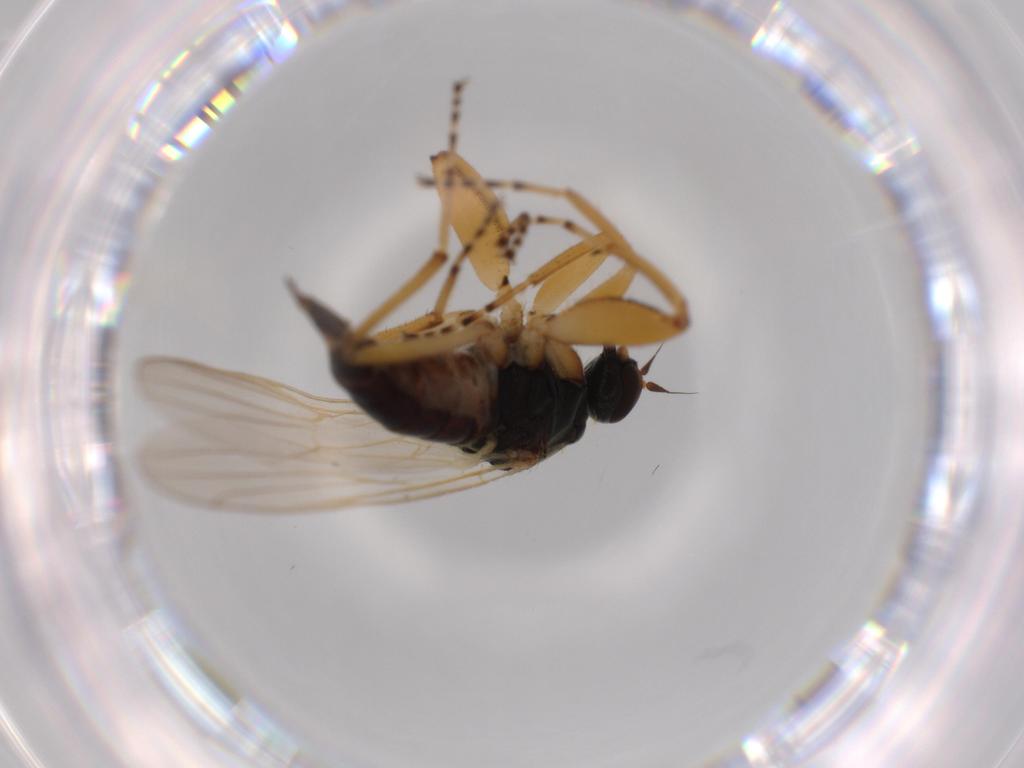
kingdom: Animalia
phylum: Arthropoda
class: Insecta
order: Diptera
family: Hybotidae
